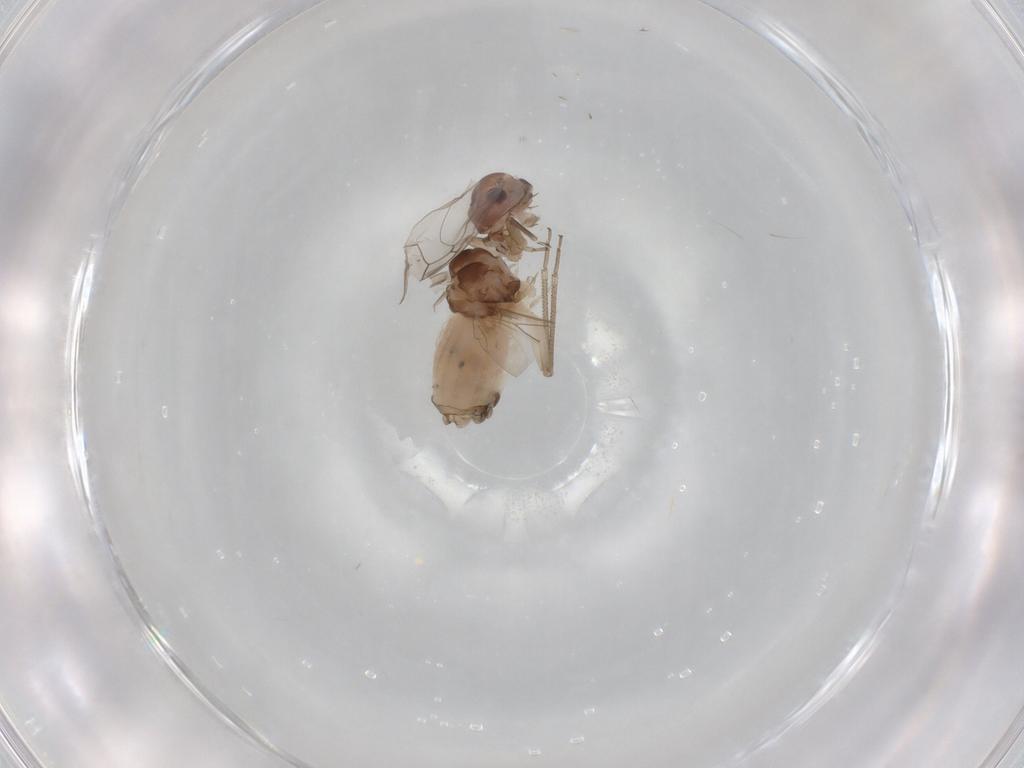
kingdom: Animalia
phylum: Arthropoda
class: Insecta
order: Psocodea
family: Peripsocidae
